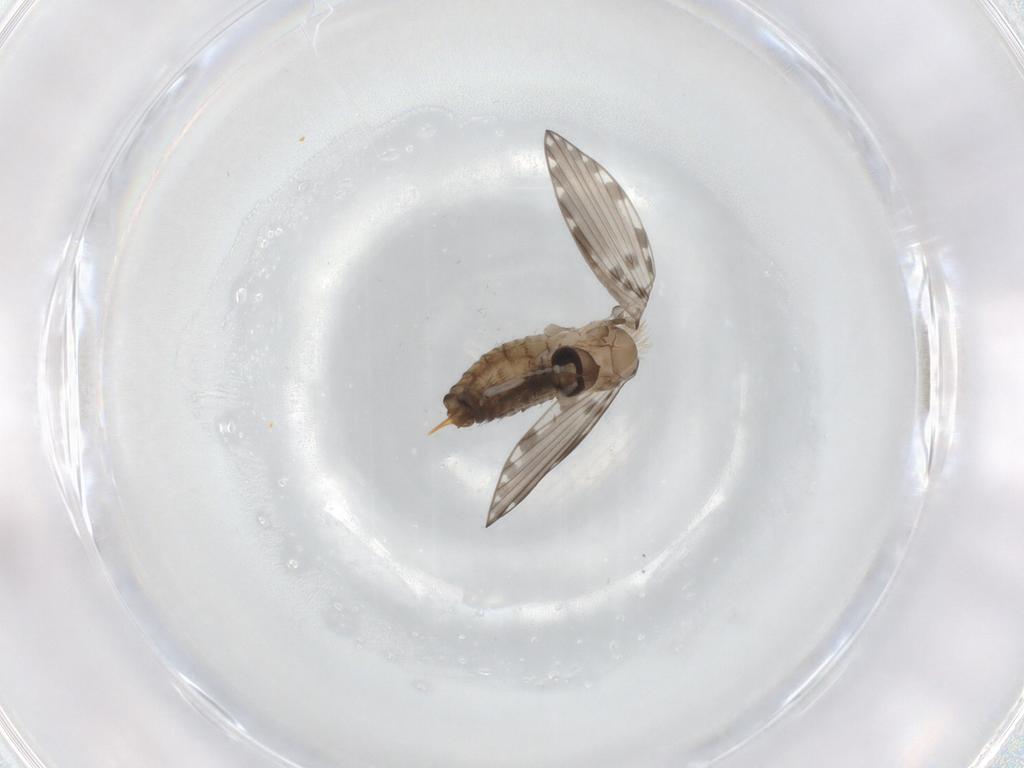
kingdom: Animalia
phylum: Arthropoda
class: Insecta
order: Diptera
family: Psychodidae
